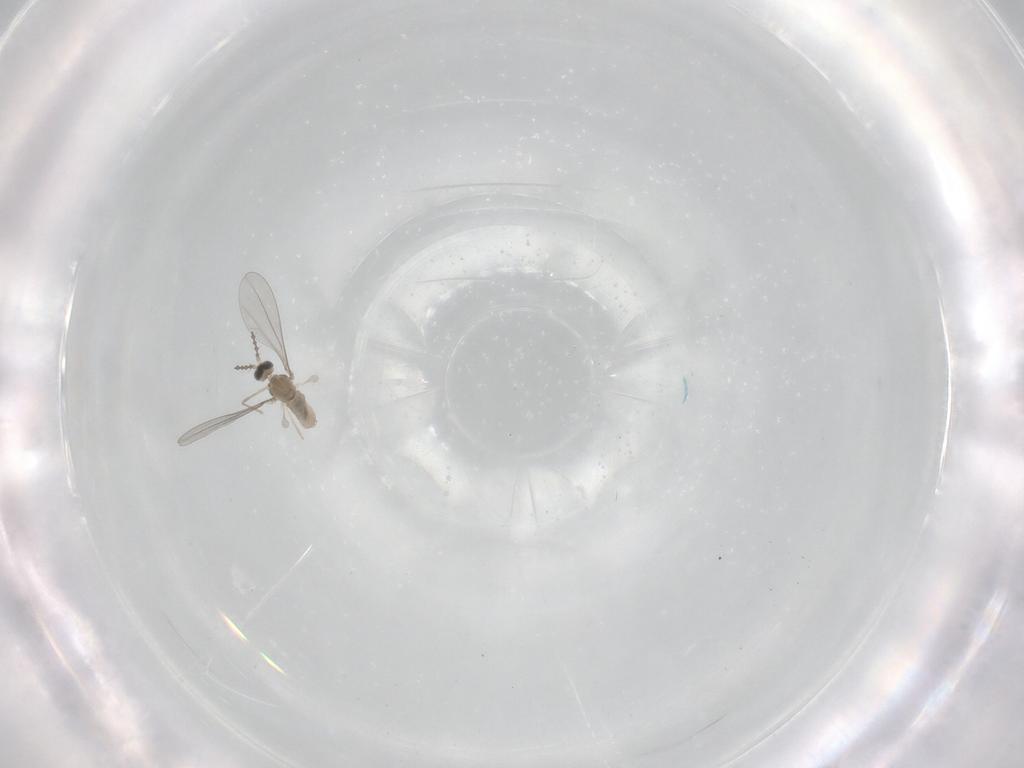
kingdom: Animalia
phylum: Arthropoda
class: Insecta
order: Diptera
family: Cecidomyiidae
